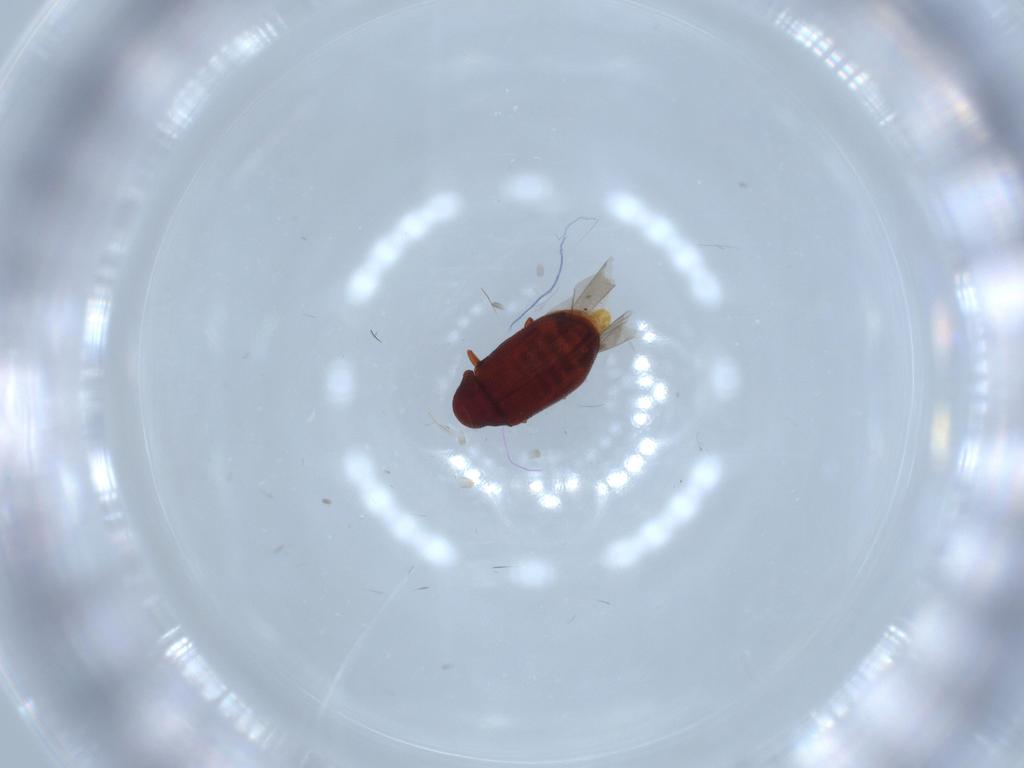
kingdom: Animalia
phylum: Arthropoda
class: Insecta
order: Coleoptera
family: Ptinidae
